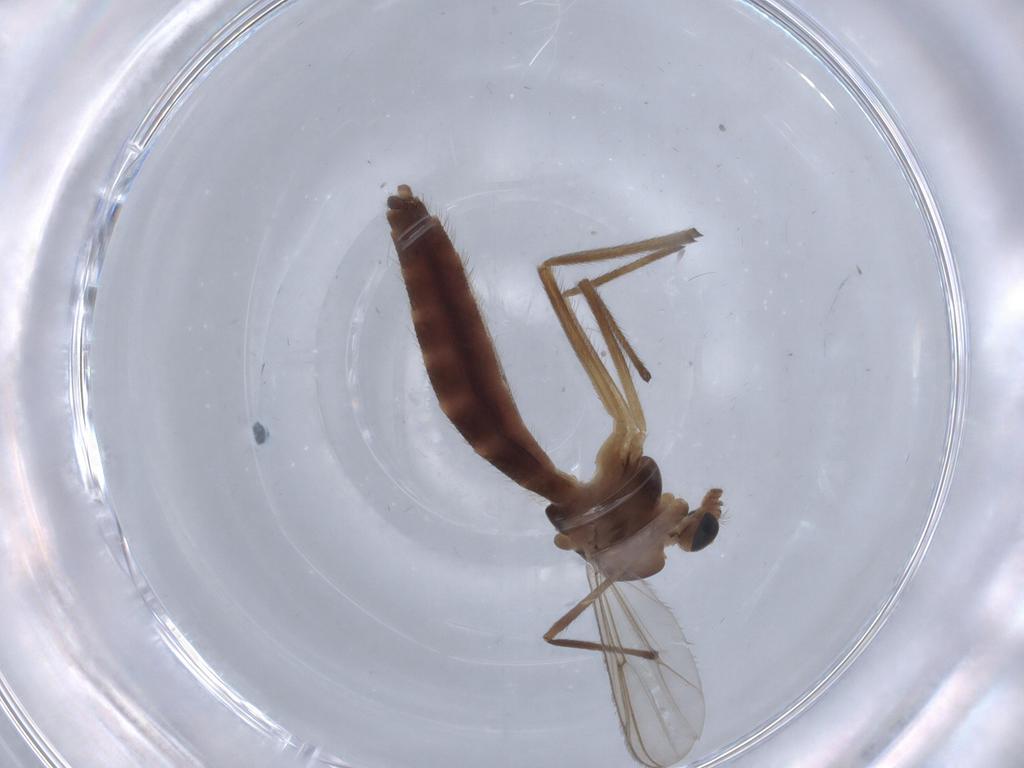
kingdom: Animalia
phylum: Arthropoda
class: Insecta
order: Diptera
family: Chironomidae
